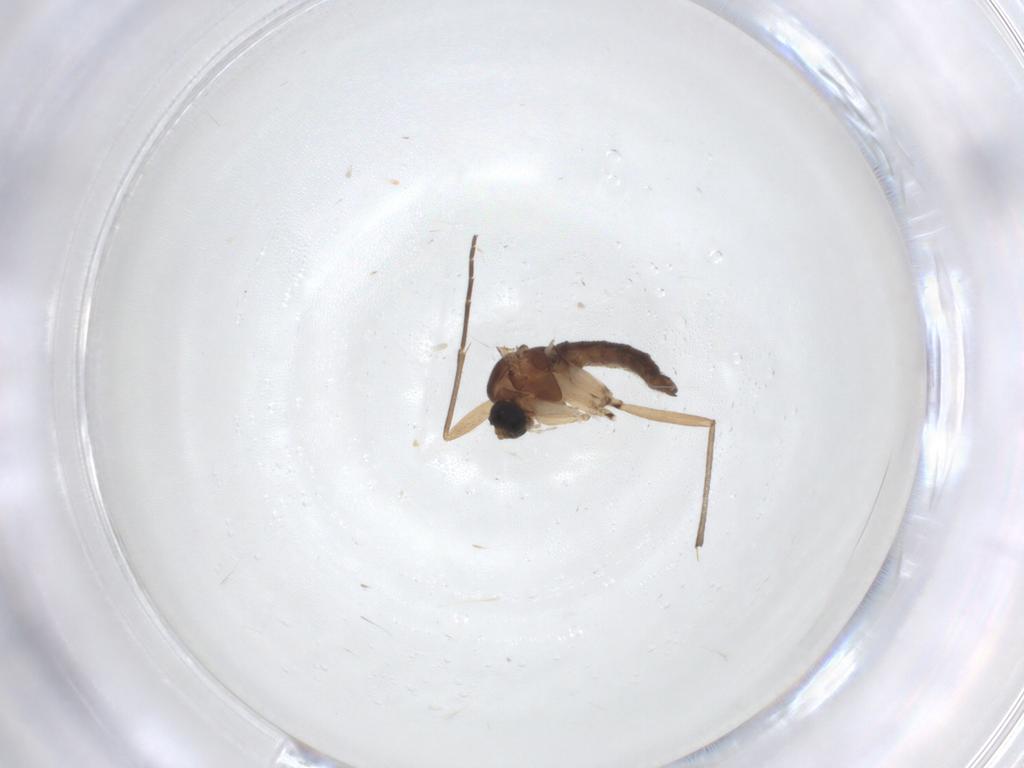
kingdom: Animalia
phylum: Arthropoda
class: Insecta
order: Diptera
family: Sciaridae
